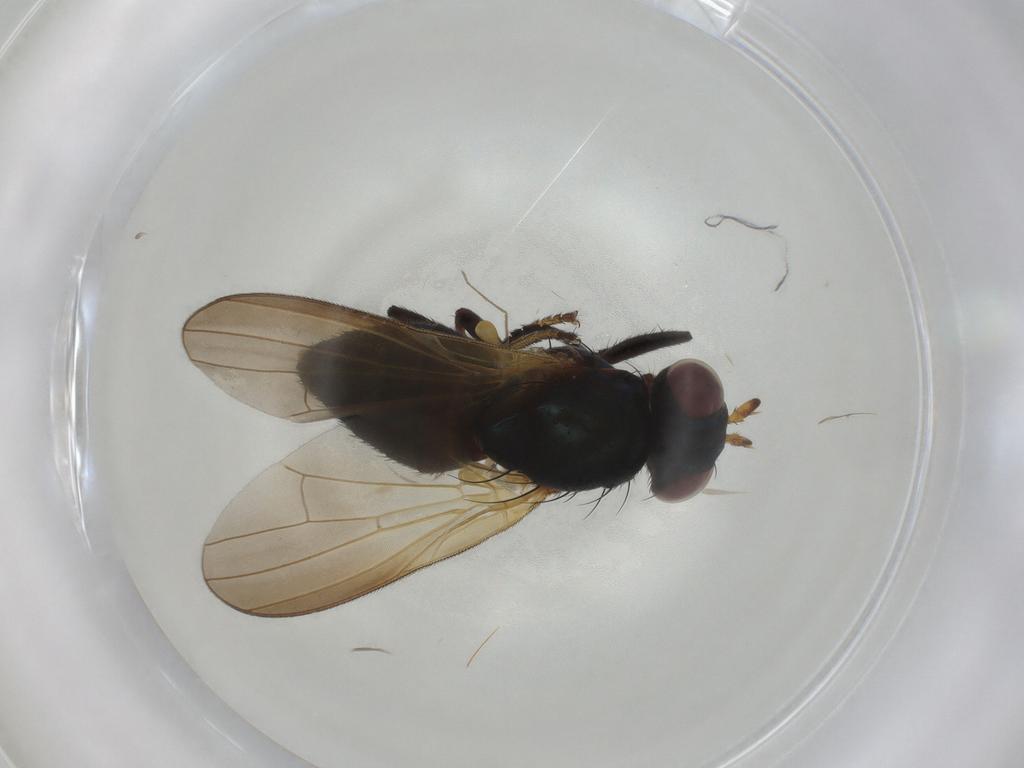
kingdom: Animalia
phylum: Arthropoda
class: Insecta
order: Diptera
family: Lauxaniidae
